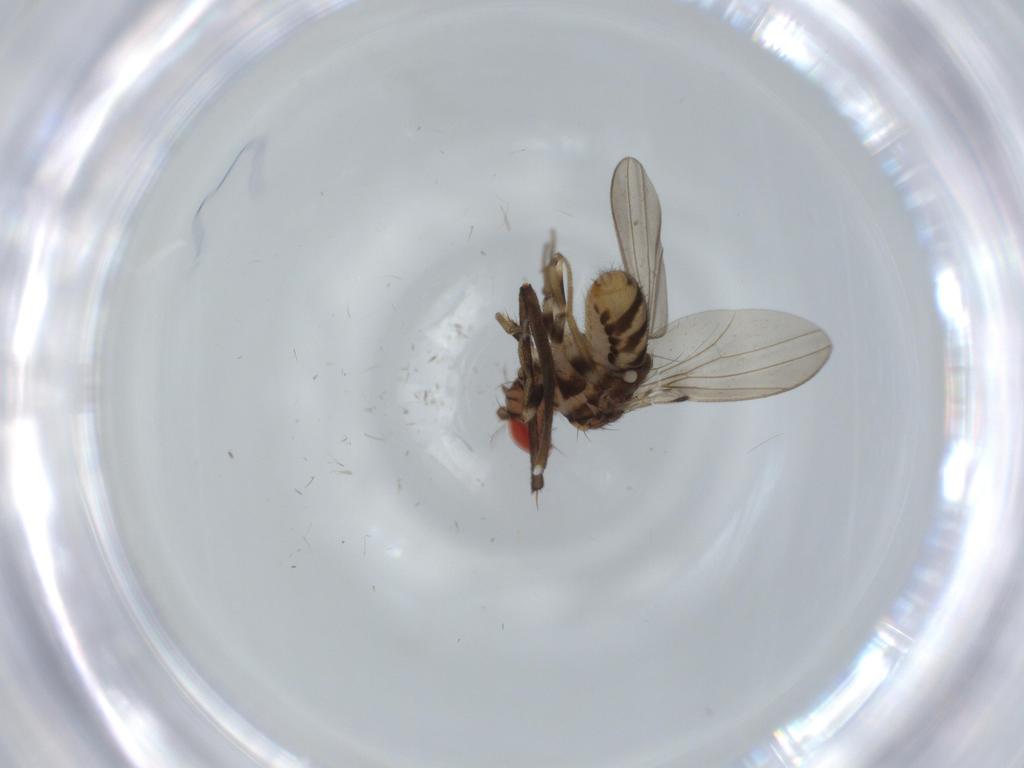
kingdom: Animalia
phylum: Arthropoda
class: Insecta
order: Diptera
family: Drosophilidae
